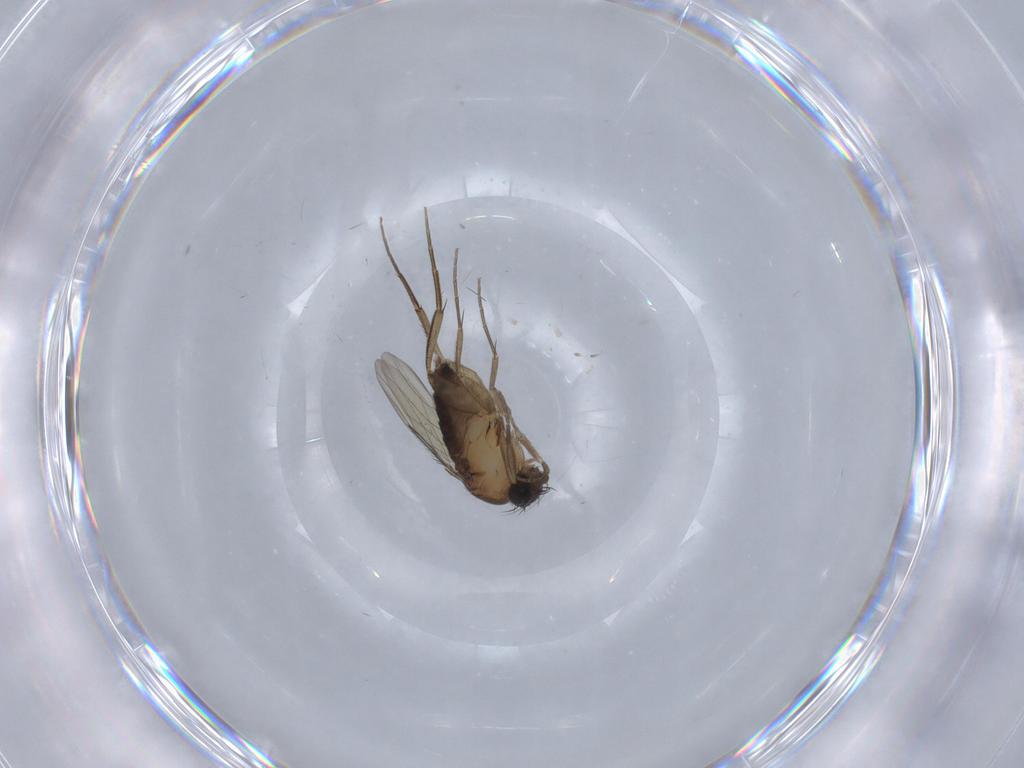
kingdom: Animalia
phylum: Arthropoda
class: Insecta
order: Diptera
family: Phoridae
